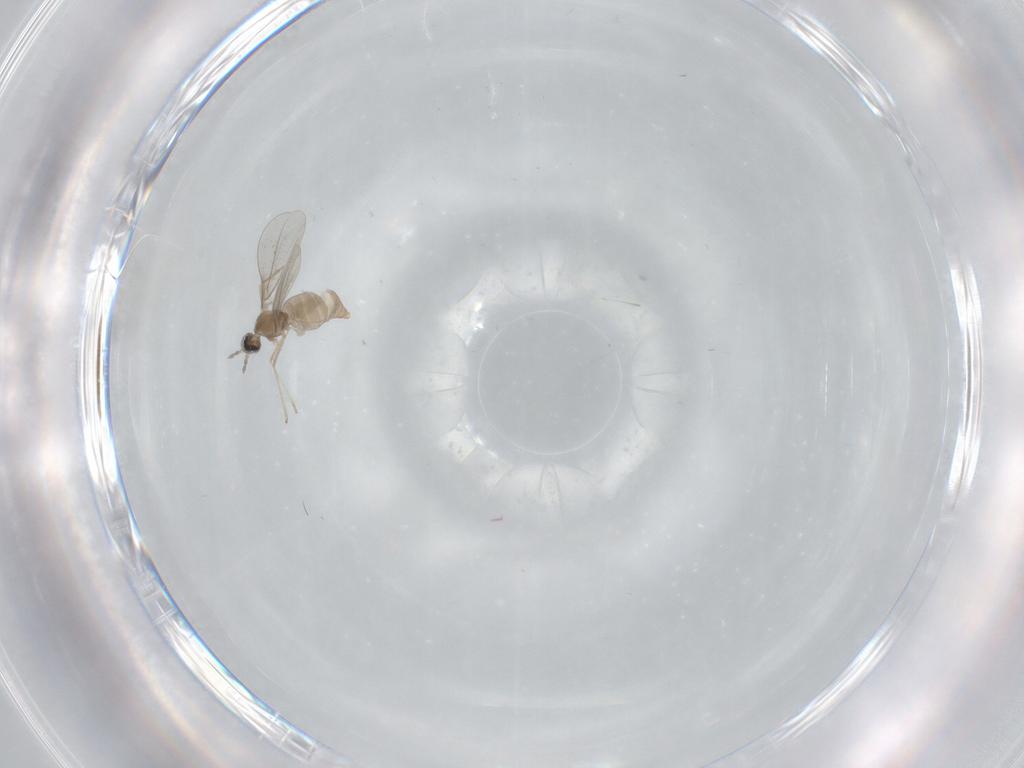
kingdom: Animalia
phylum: Arthropoda
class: Insecta
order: Diptera
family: Cecidomyiidae
